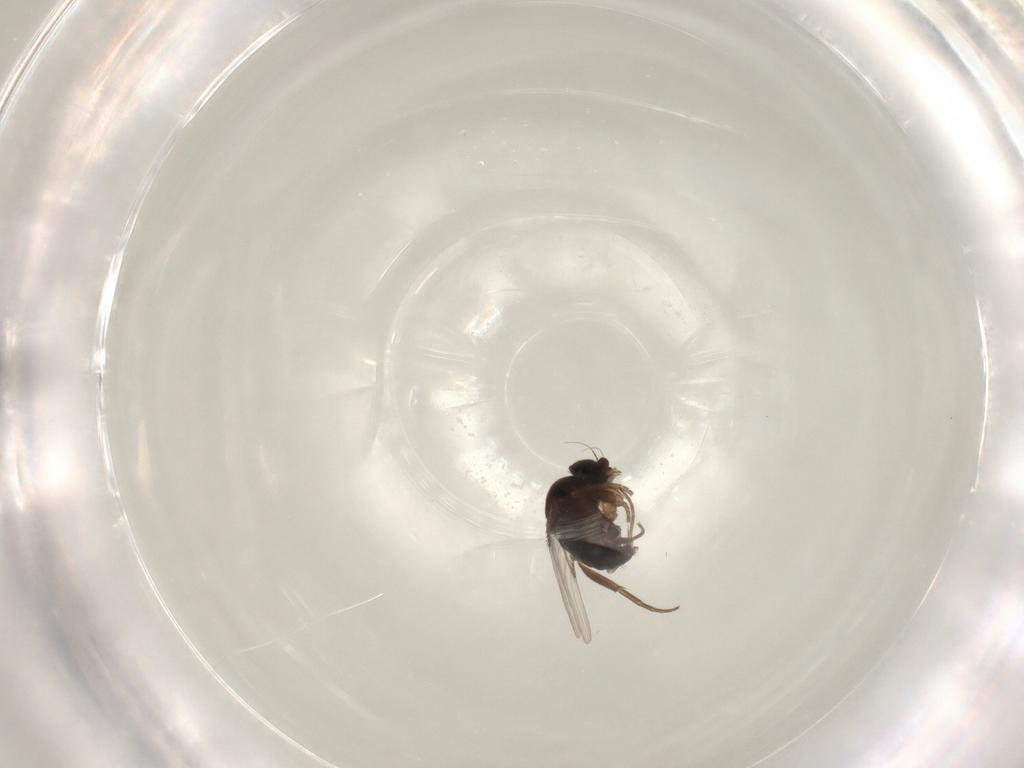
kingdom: Animalia
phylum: Arthropoda
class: Insecta
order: Diptera
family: Phoridae
